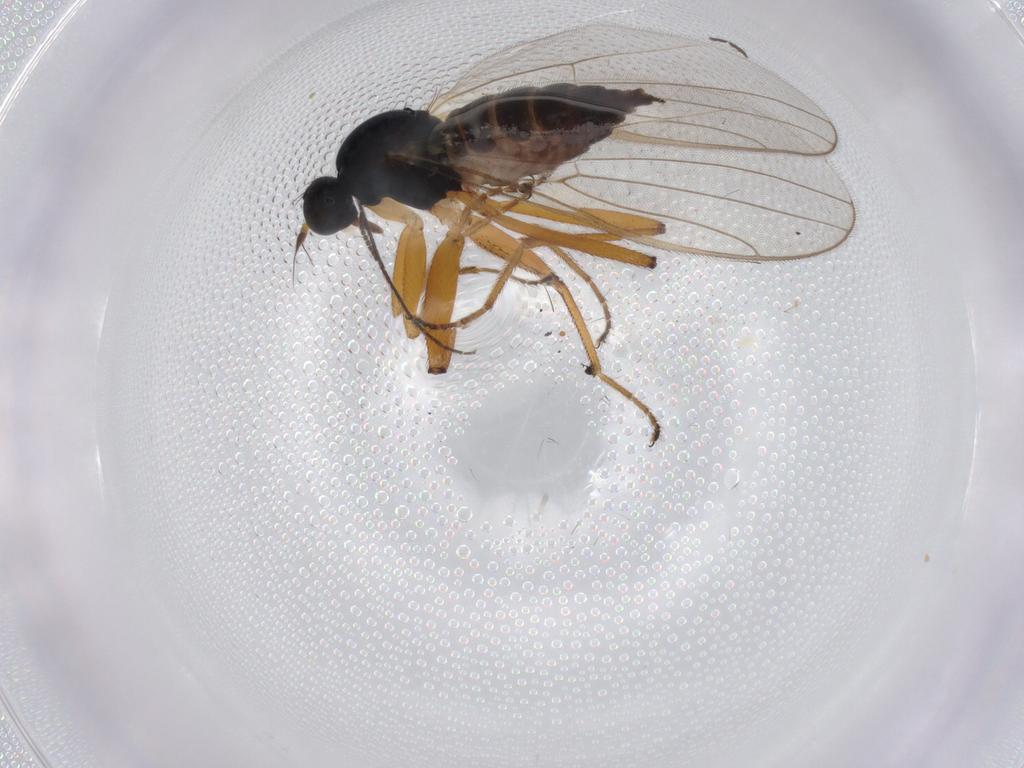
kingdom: Animalia
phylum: Arthropoda
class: Insecta
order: Diptera
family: Hybotidae
